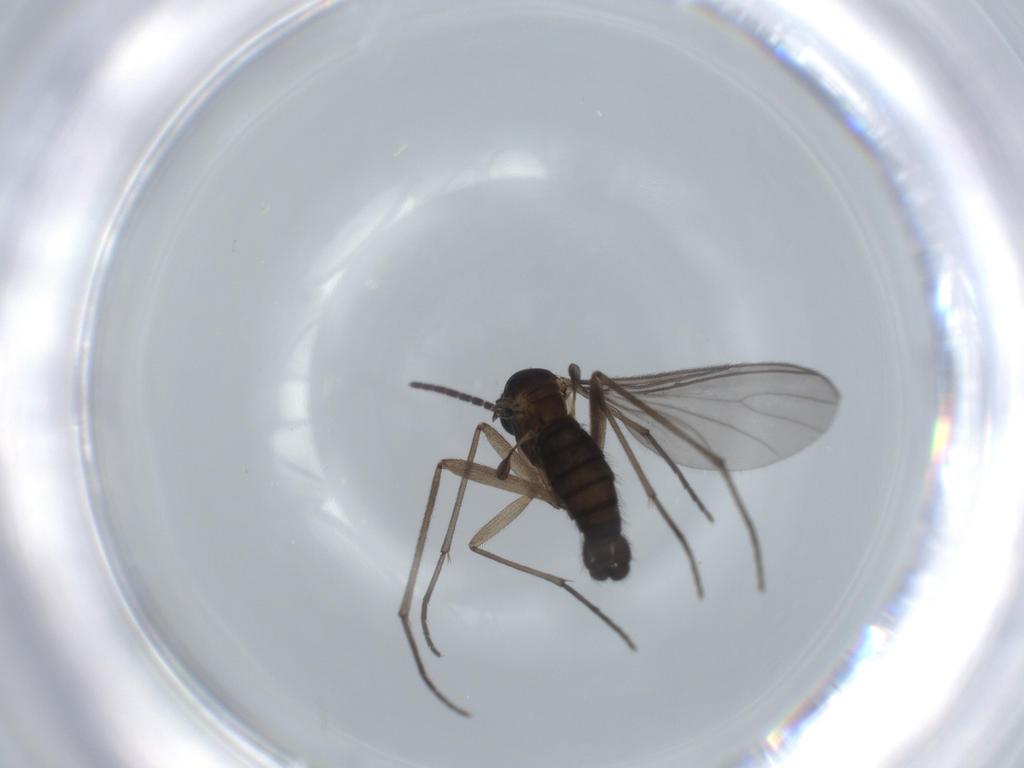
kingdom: Animalia
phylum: Arthropoda
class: Insecta
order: Diptera
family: Sciaridae
